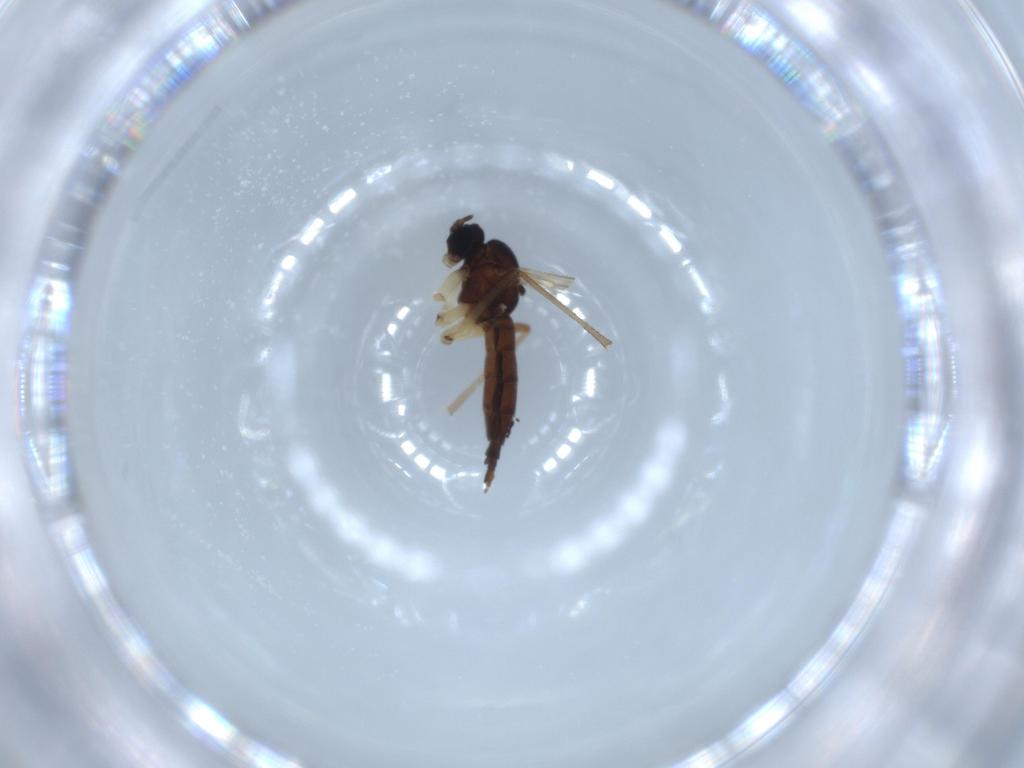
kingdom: Animalia
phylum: Arthropoda
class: Insecta
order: Diptera
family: Sciaridae
